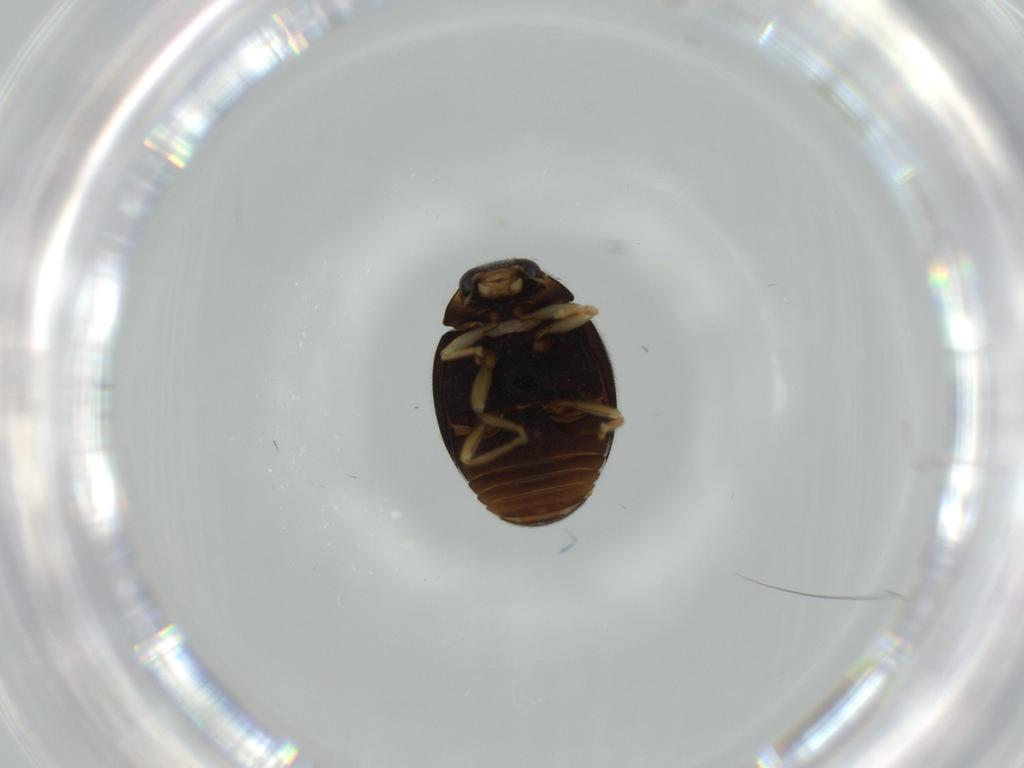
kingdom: Animalia
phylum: Arthropoda
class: Insecta
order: Coleoptera
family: Coccinellidae
